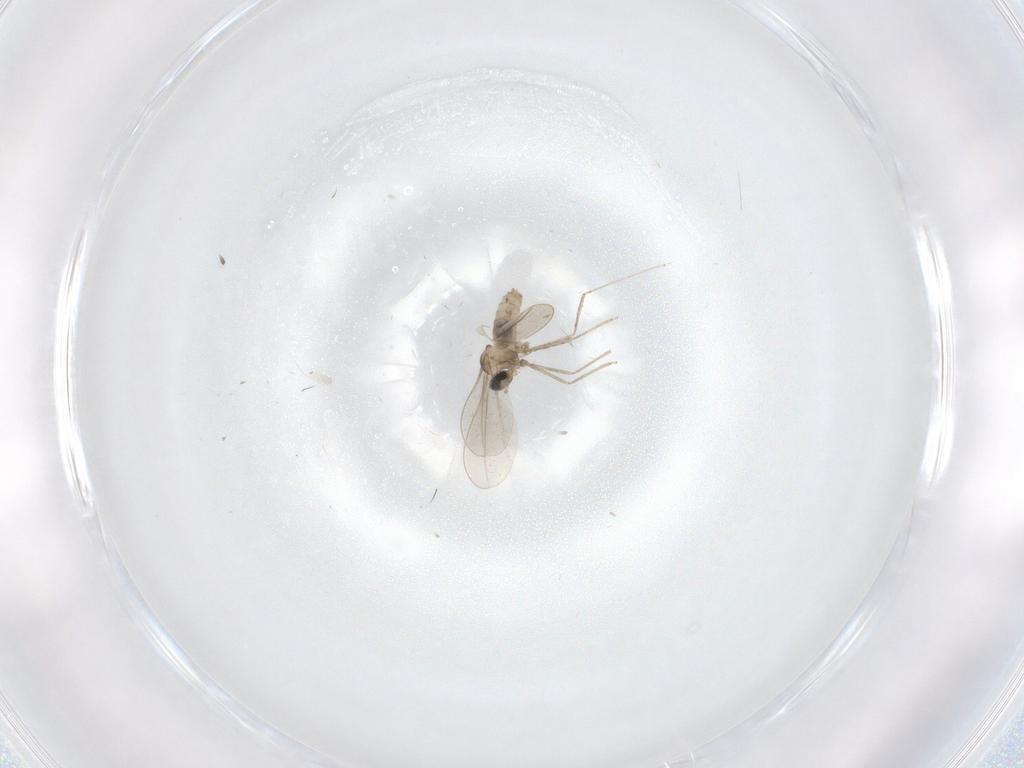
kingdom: Animalia
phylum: Arthropoda
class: Insecta
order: Diptera
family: Cecidomyiidae
